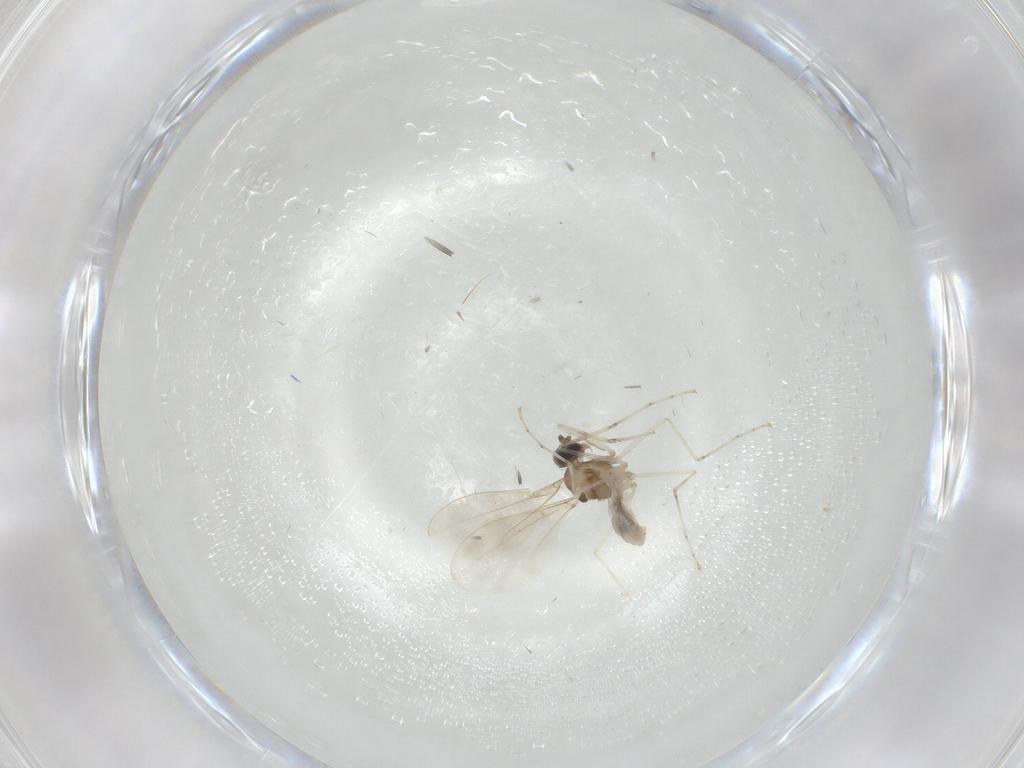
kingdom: Animalia
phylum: Arthropoda
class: Insecta
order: Diptera
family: Cecidomyiidae
